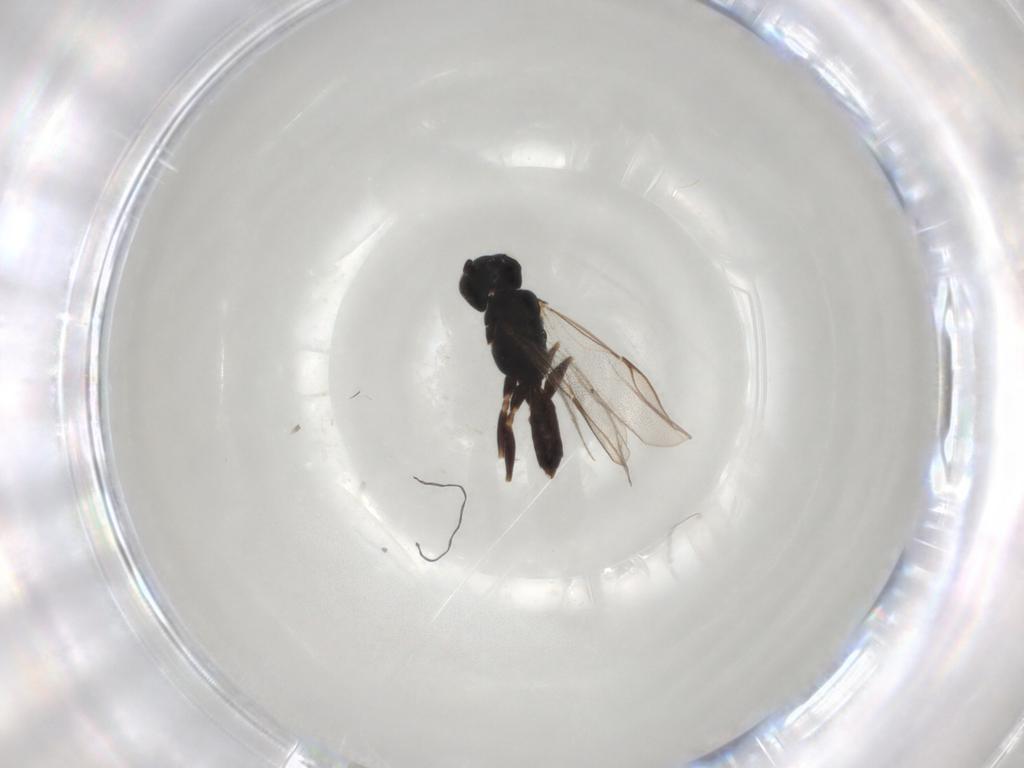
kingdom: Animalia
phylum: Arthropoda
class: Insecta
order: Hymenoptera
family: Dryinidae
